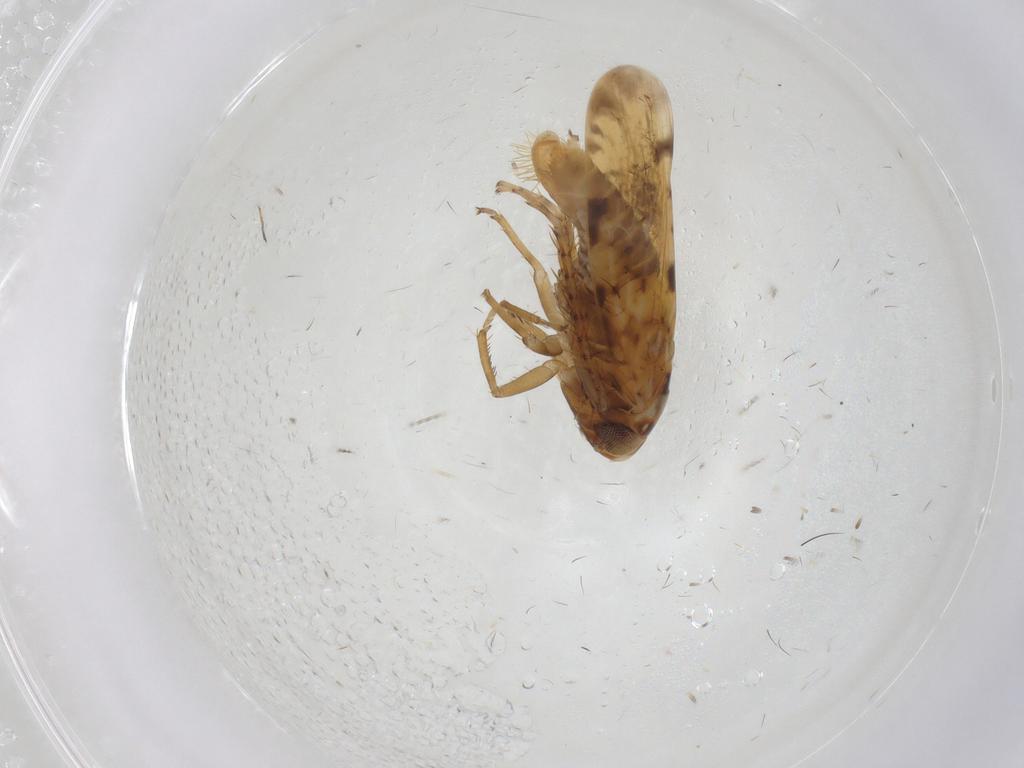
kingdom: Animalia
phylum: Arthropoda
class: Insecta
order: Hemiptera
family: Cicadellidae
